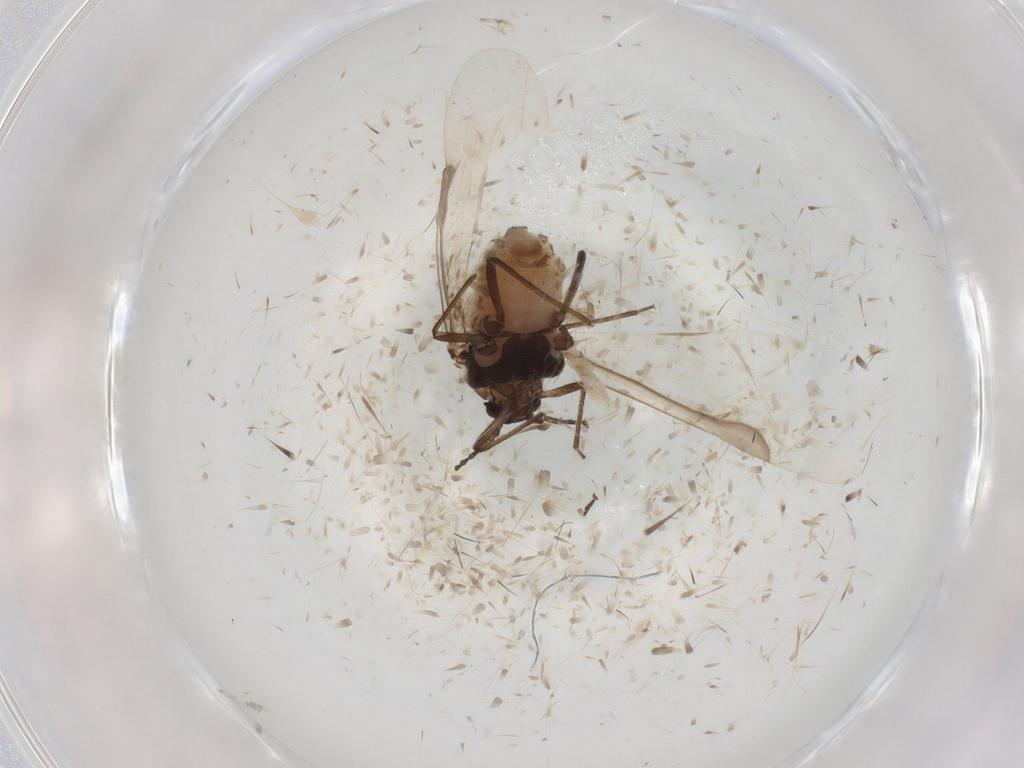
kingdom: Animalia
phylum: Arthropoda
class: Insecta
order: Hemiptera
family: Aphididae
